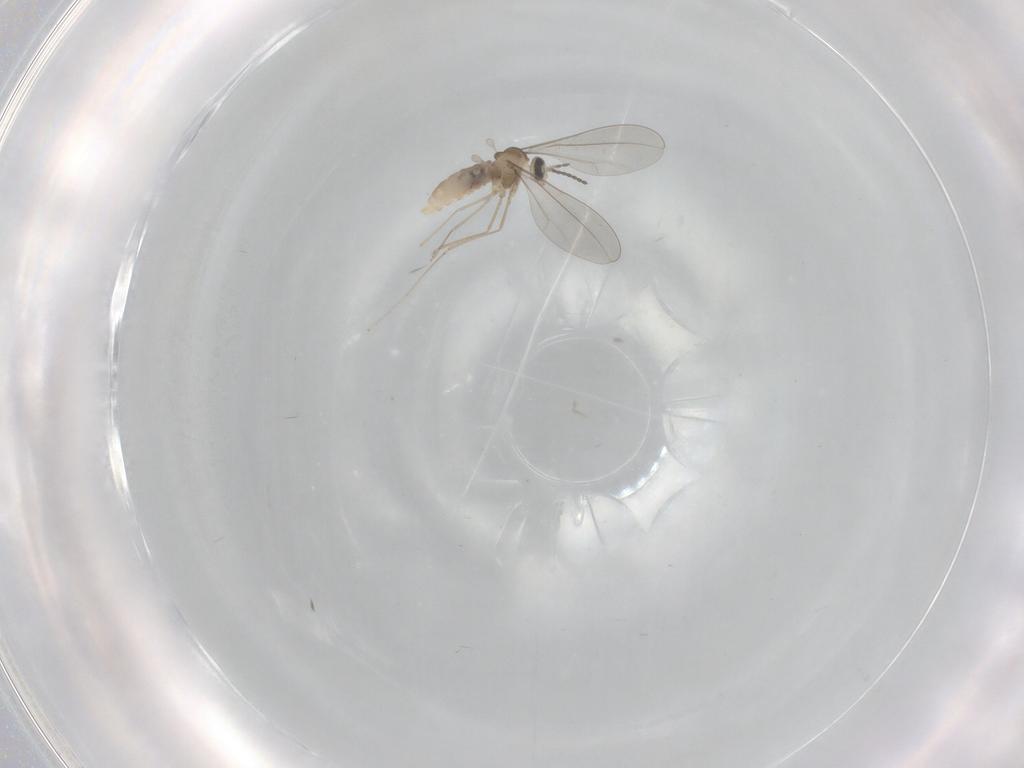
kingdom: Animalia
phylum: Arthropoda
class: Insecta
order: Diptera
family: Cecidomyiidae
